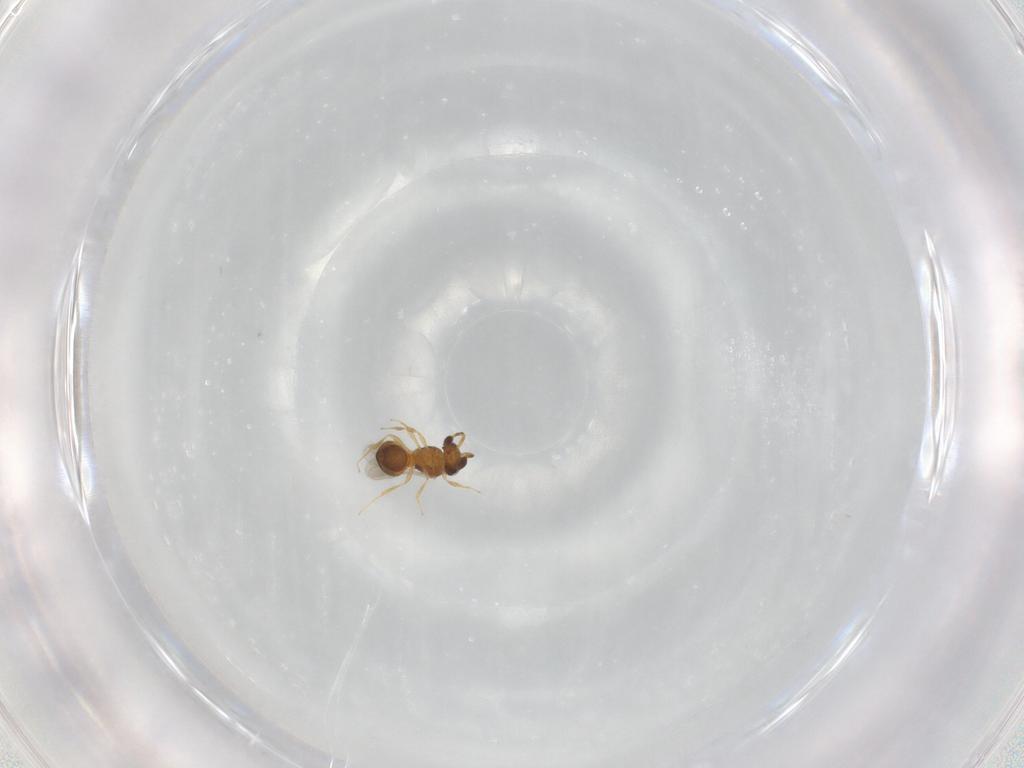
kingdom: Animalia
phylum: Arthropoda
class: Insecta
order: Hymenoptera
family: Scelionidae
